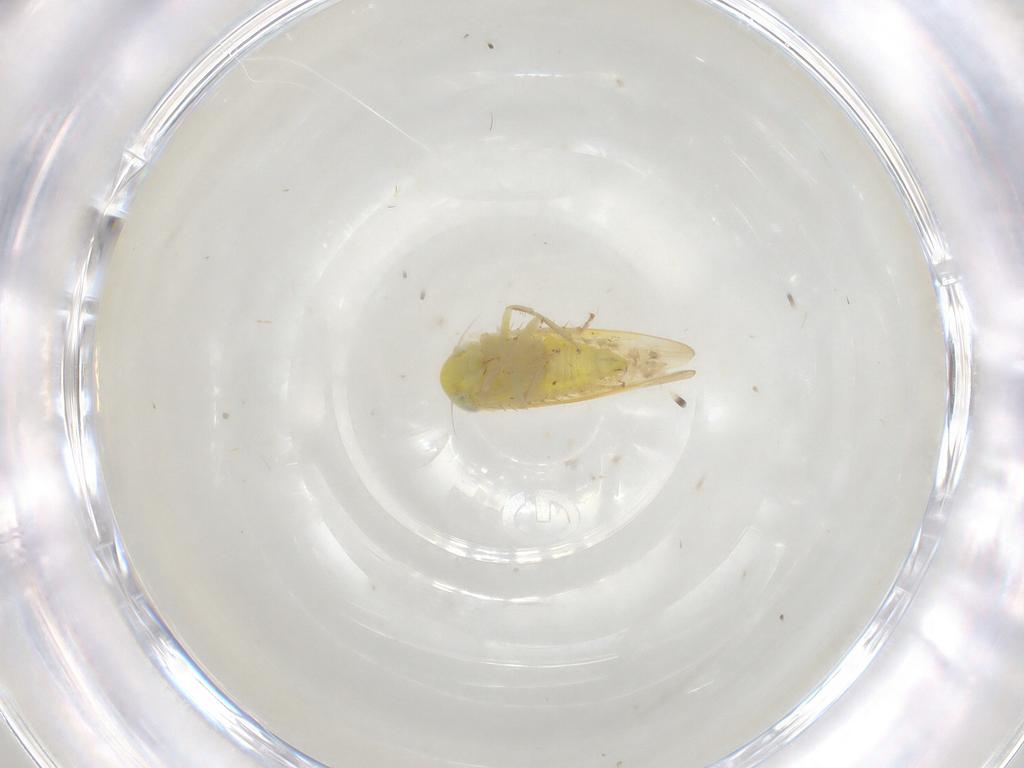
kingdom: Animalia
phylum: Arthropoda
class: Insecta
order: Hemiptera
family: Cicadellidae
